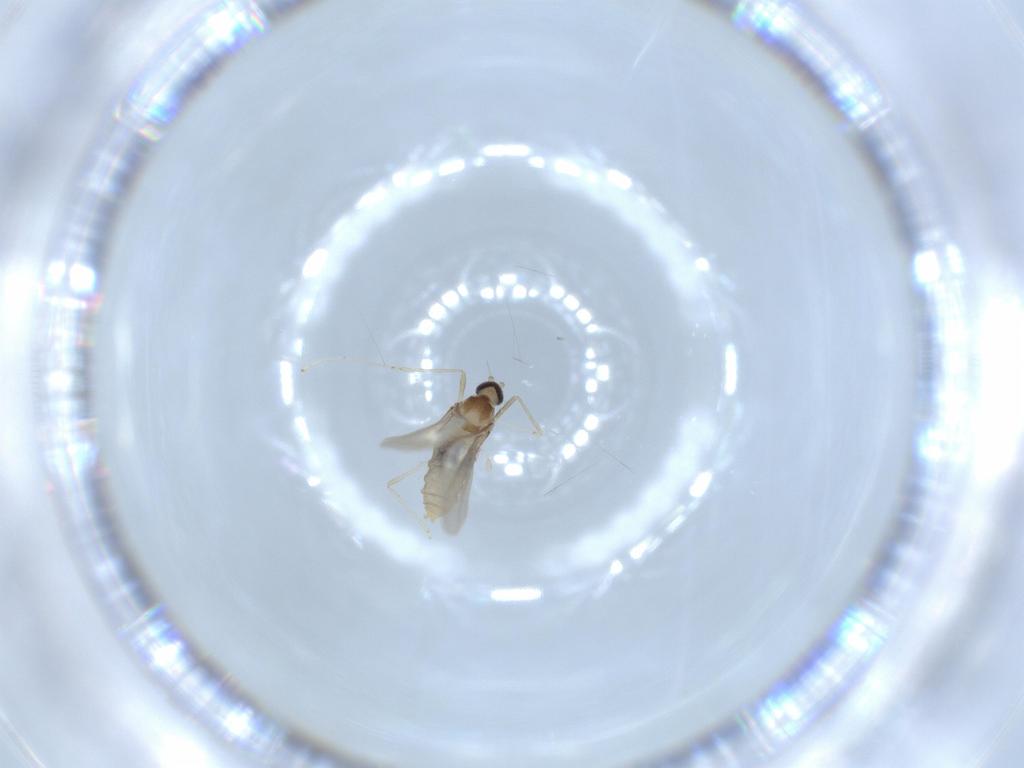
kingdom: Animalia
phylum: Arthropoda
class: Insecta
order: Diptera
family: Cecidomyiidae
